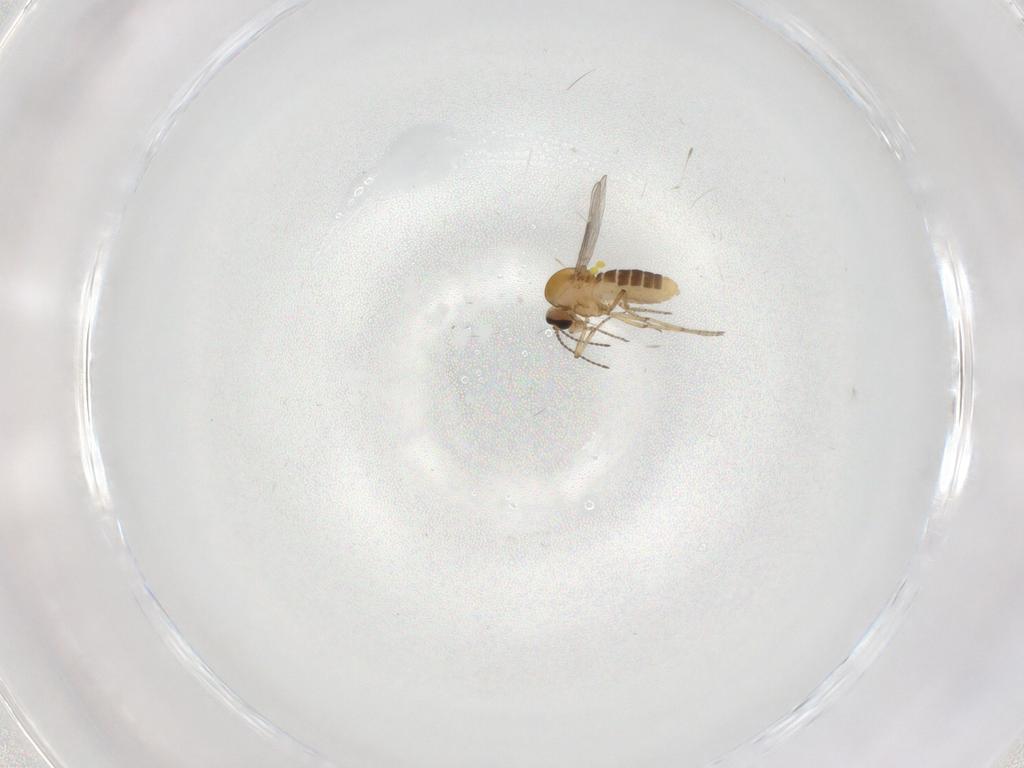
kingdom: Animalia
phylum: Arthropoda
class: Insecta
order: Diptera
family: Ceratopogonidae
